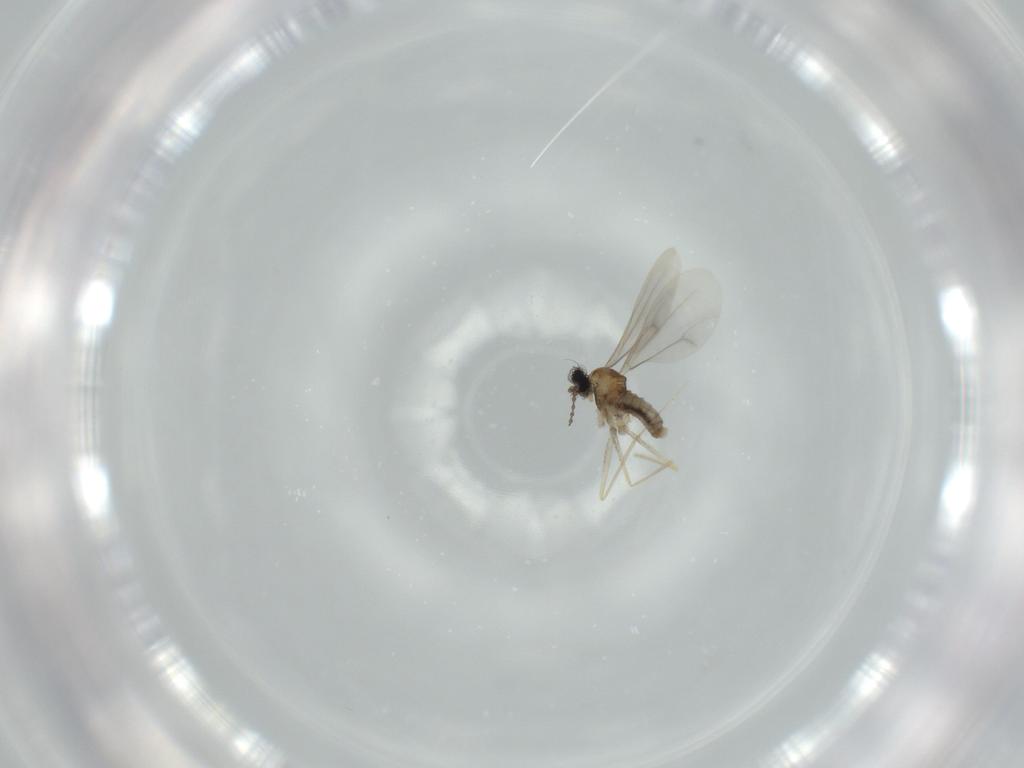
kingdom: Animalia
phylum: Arthropoda
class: Insecta
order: Diptera
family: Cecidomyiidae
